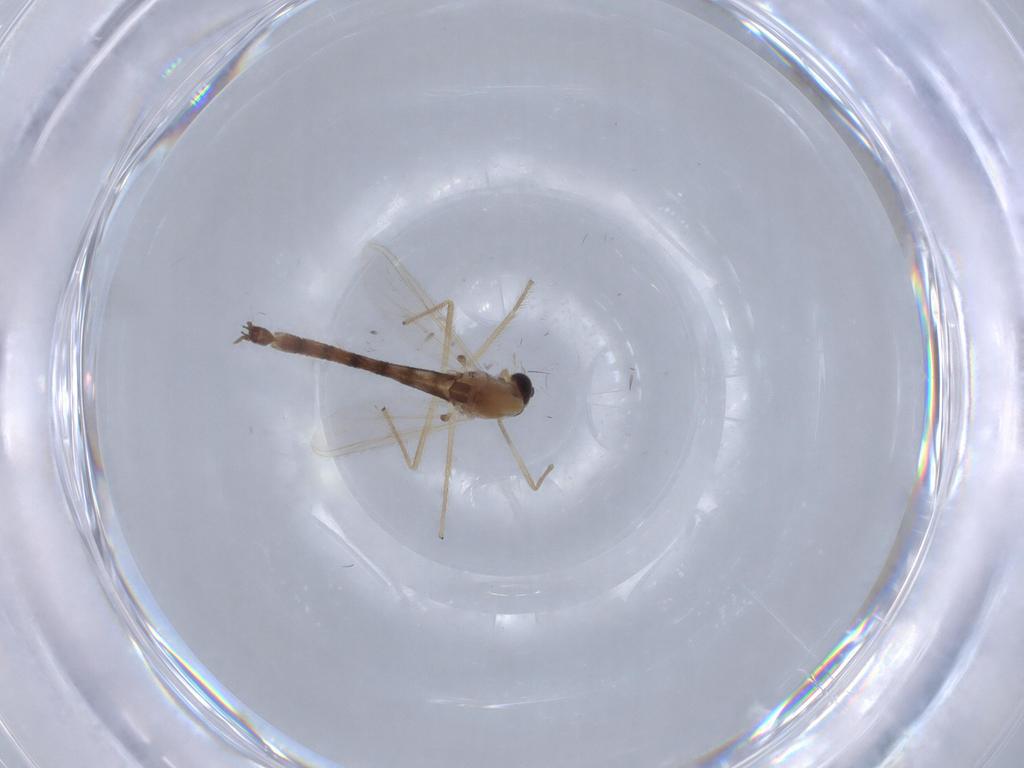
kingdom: Animalia
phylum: Arthropoda
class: Insecta
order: Diptera
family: Chironomidae
